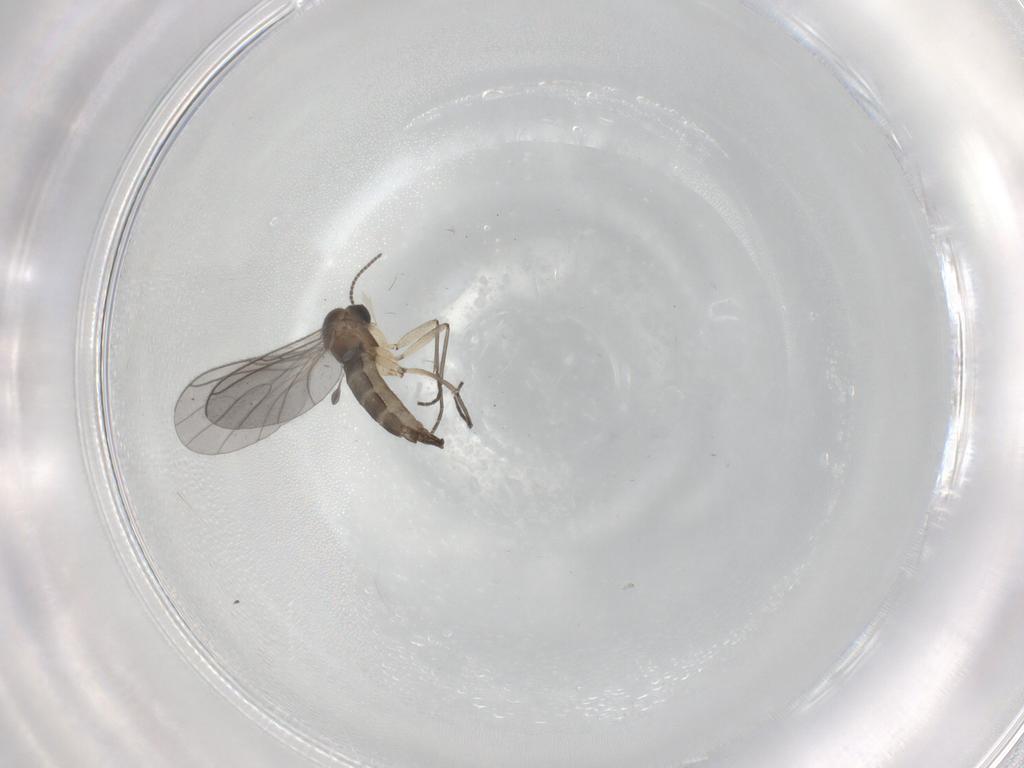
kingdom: Animalia
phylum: Arthropoda
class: Insecta
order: Diptera
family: Sciaridae
